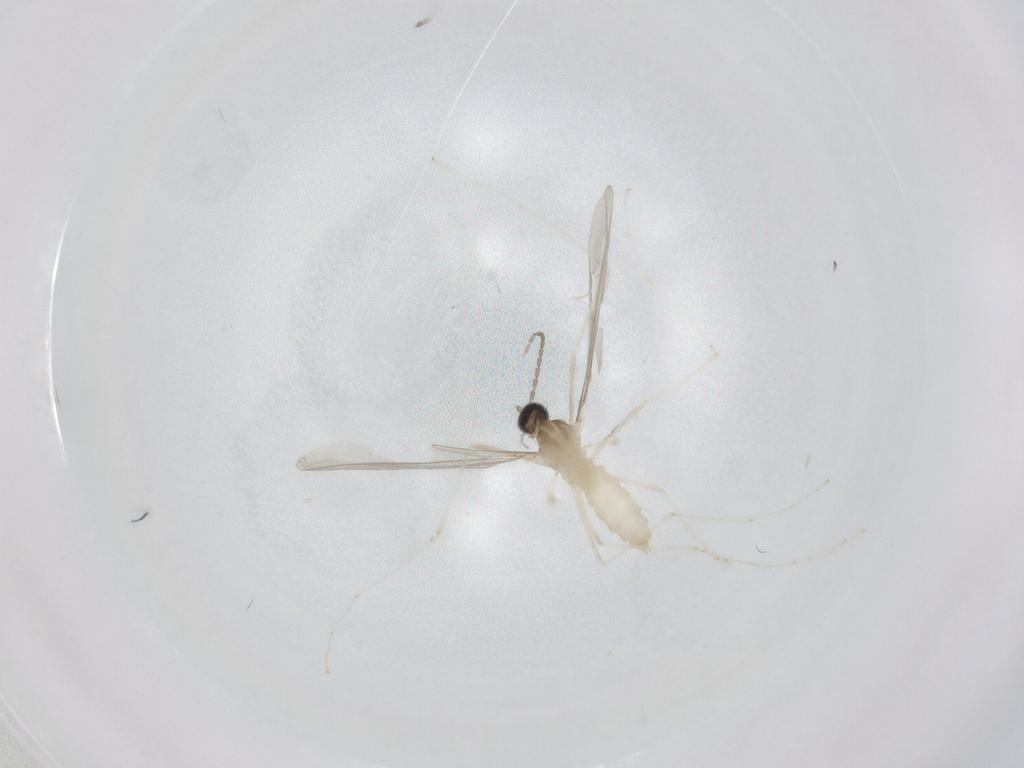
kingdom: Animalia
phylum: Arthropoda
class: Insecta
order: Diptera
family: Cecidomyiidae
